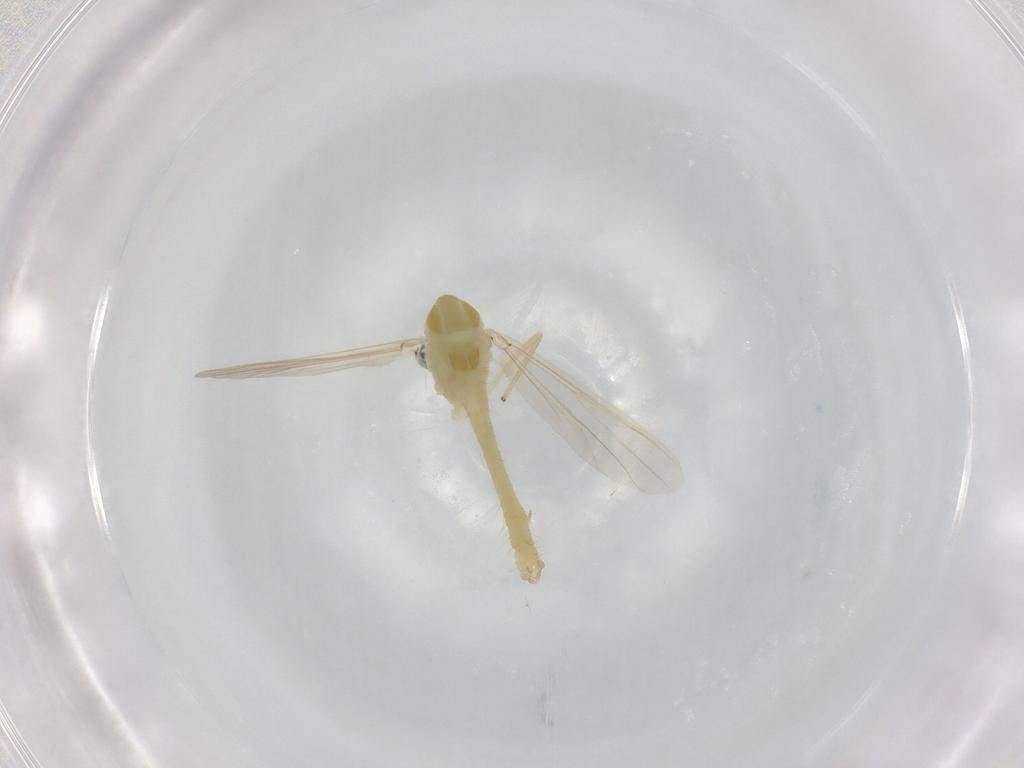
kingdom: Animalia
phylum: Arthropoda
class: Insecta
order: Diptera
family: Chironomidae
